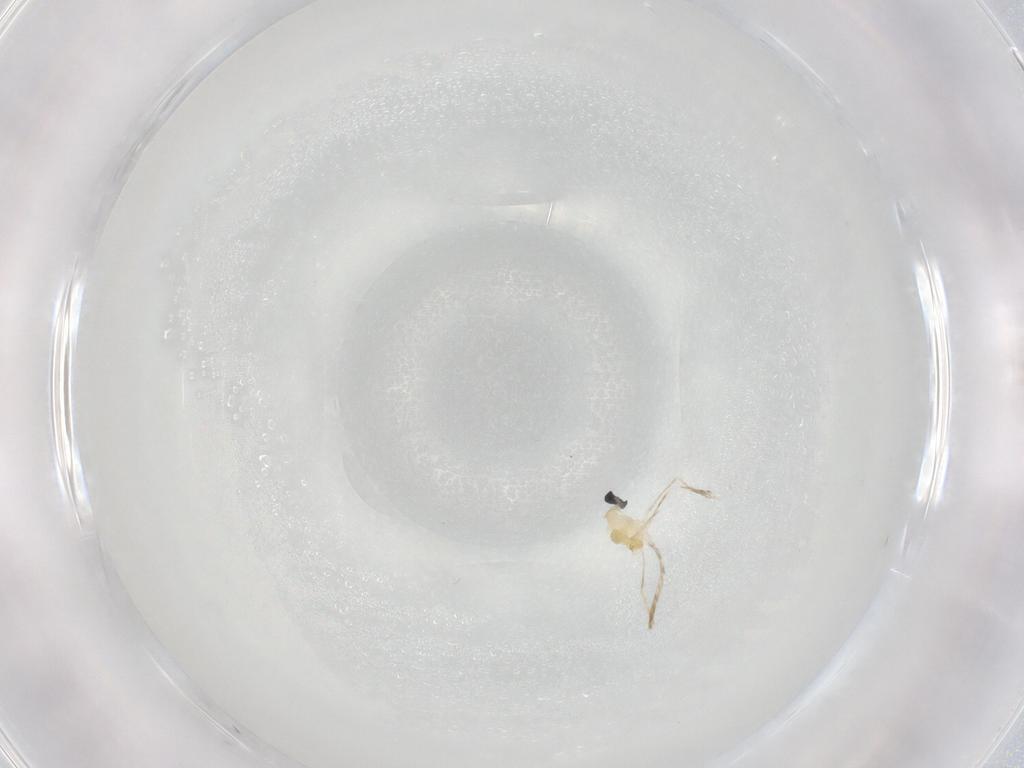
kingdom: Animalia
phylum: Arthropoda
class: Insecta
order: Diptera
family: Cecidomyiidae
